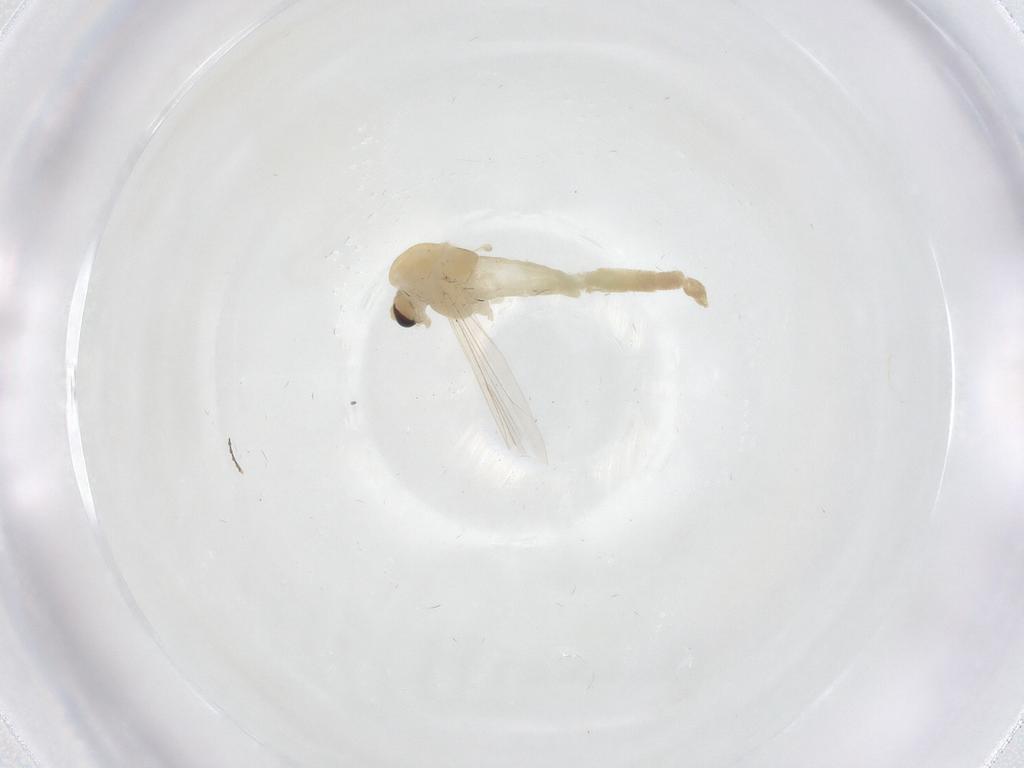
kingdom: Animalia
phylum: Arthropoda
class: Insecta
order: Diptera
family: Chironomidae
